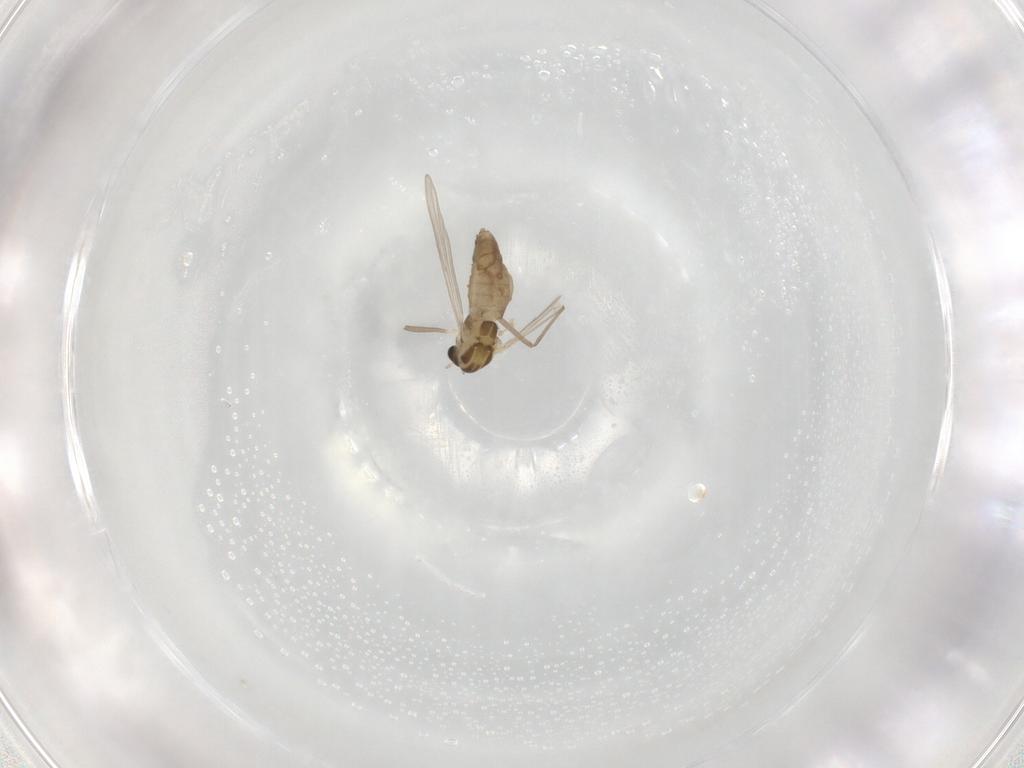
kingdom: Animalia
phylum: Arthropoda
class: Insecta
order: Diptera
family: Chironomidae
